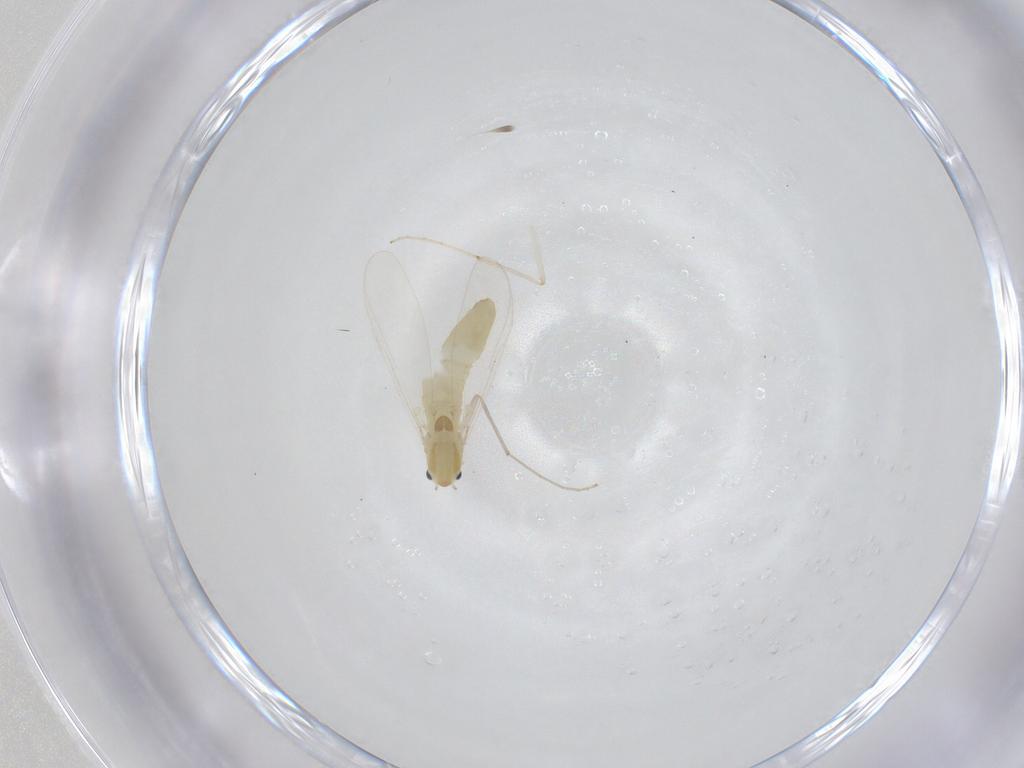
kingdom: Animalia
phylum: Arthropoda
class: Insecta
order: Diptera
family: Chironomidae
